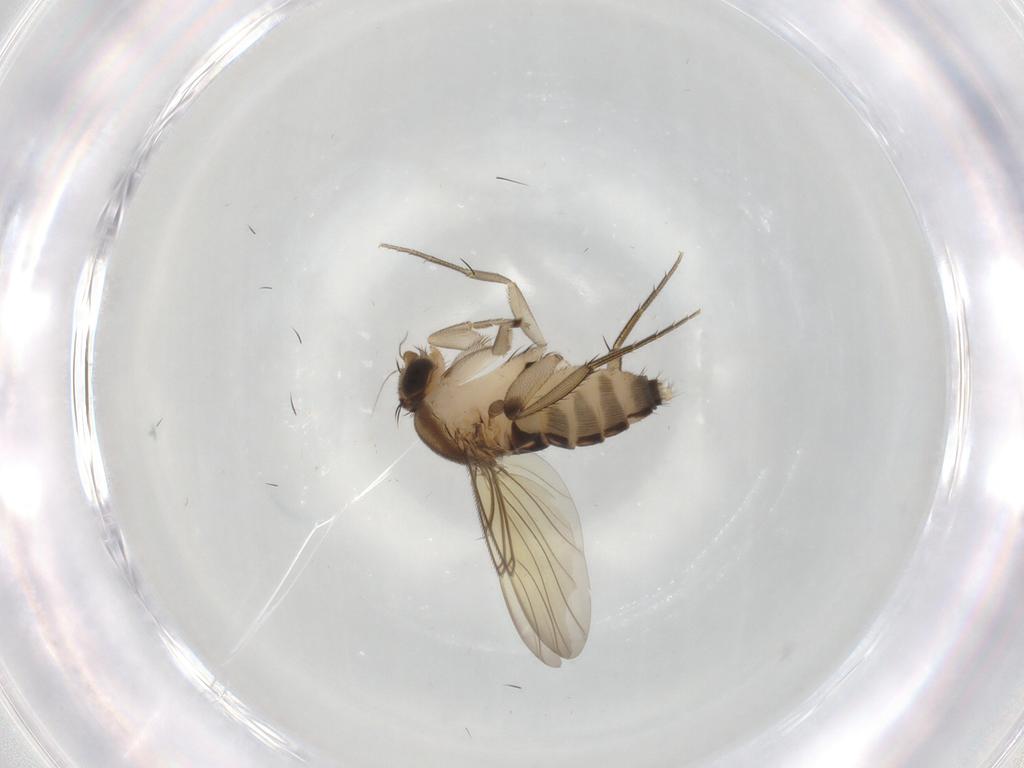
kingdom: Animalia
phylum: Arthropoda
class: Insecta
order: Diptera
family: Phoridae
